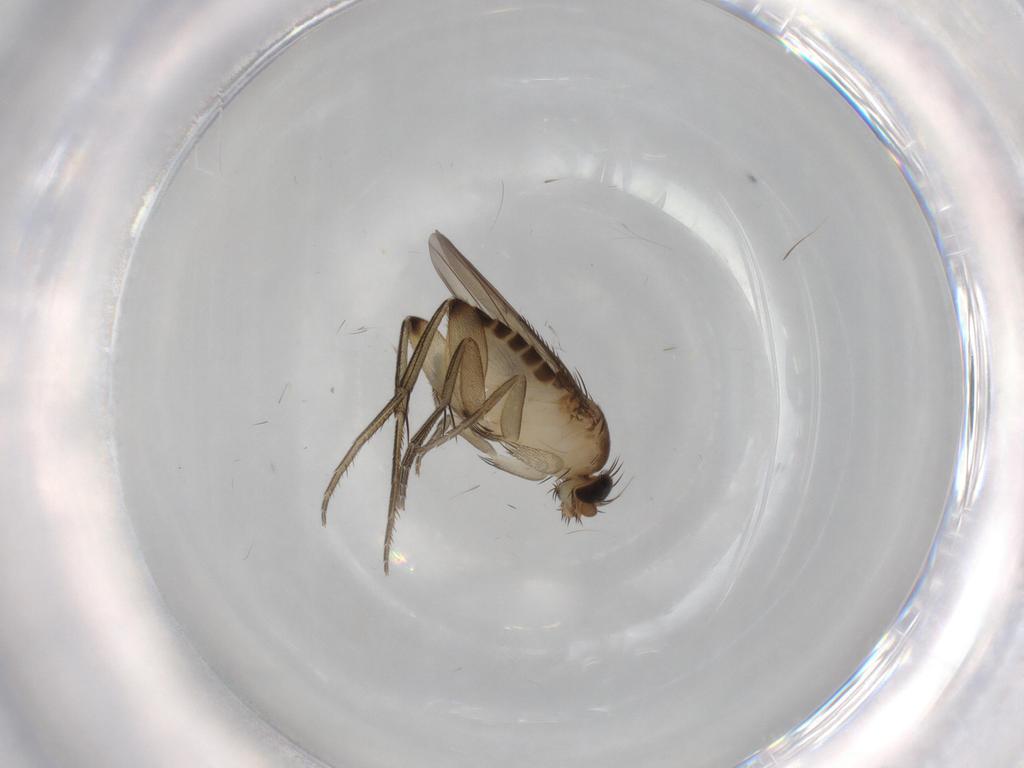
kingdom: Animalia
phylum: Arthropoda
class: Insecta
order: Diptera
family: Phoridae
